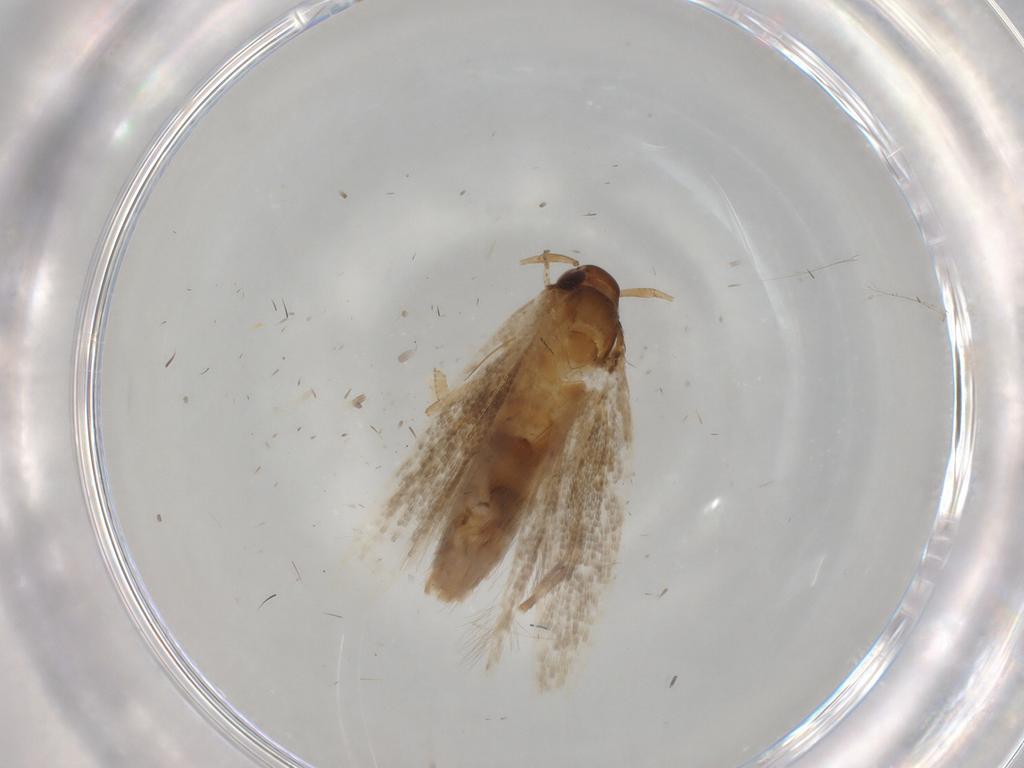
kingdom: Animalia
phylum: Arthropoda
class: Insecta
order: Lepidoptera
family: Cosmopterigidae
